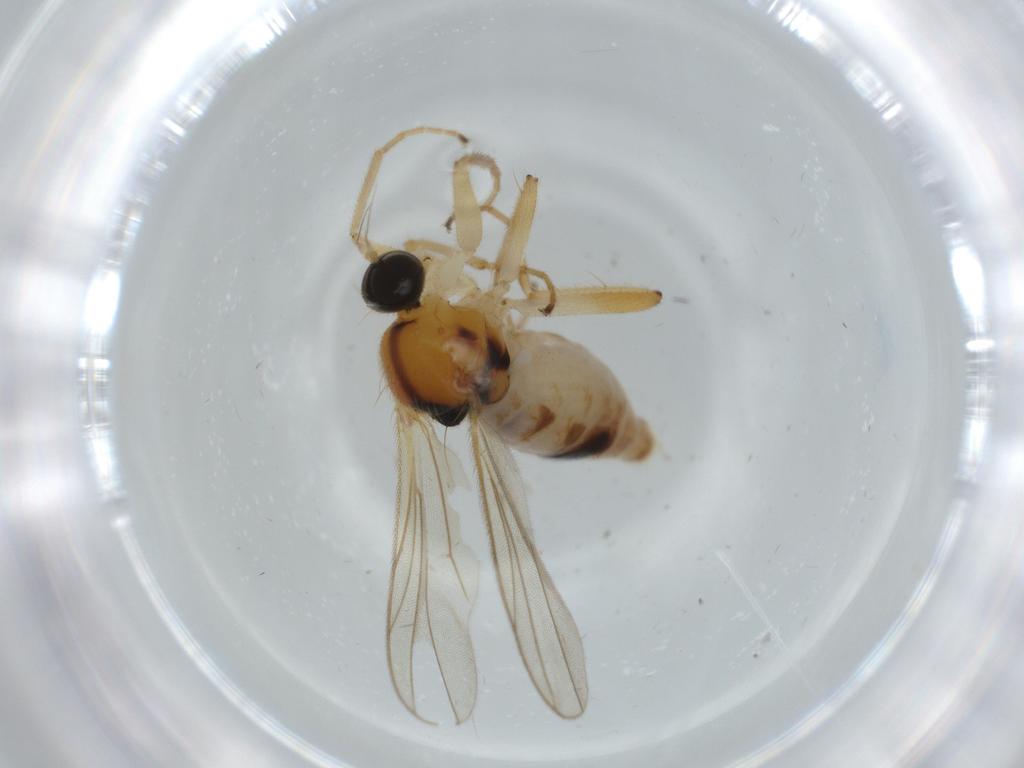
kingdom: Animalia
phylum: Arthropoda
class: Insecta
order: Diptera
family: Hybotidae
